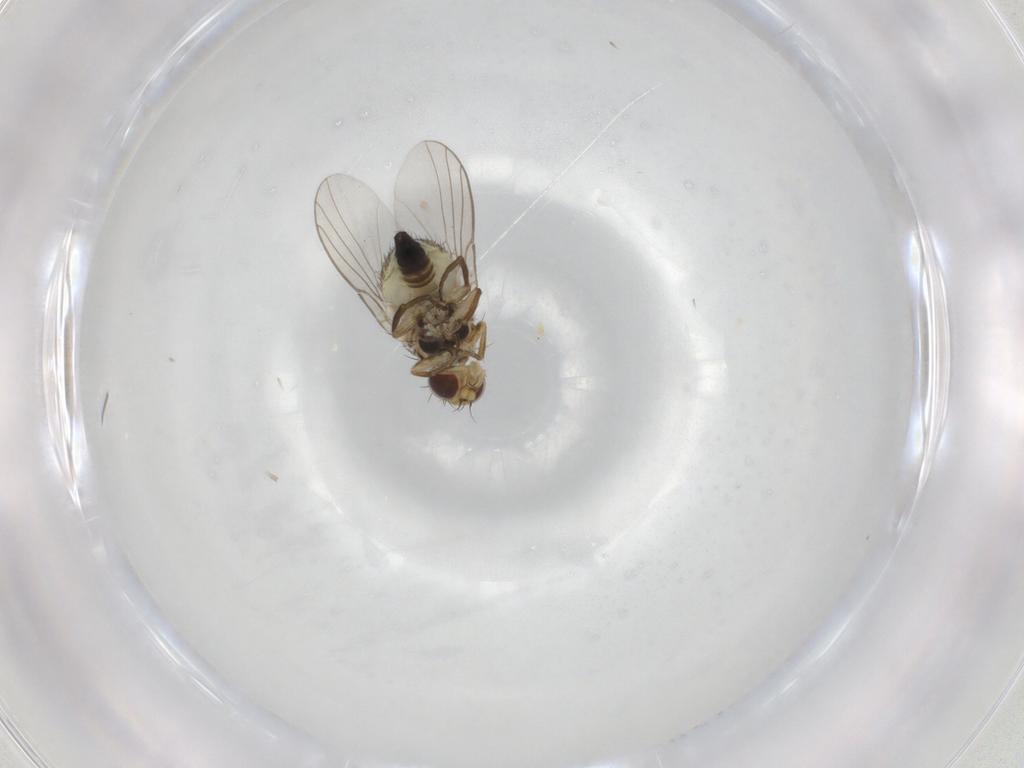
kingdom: Animalia
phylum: Arthropoda
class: Insecta
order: Diptera
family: Agromyzidae
